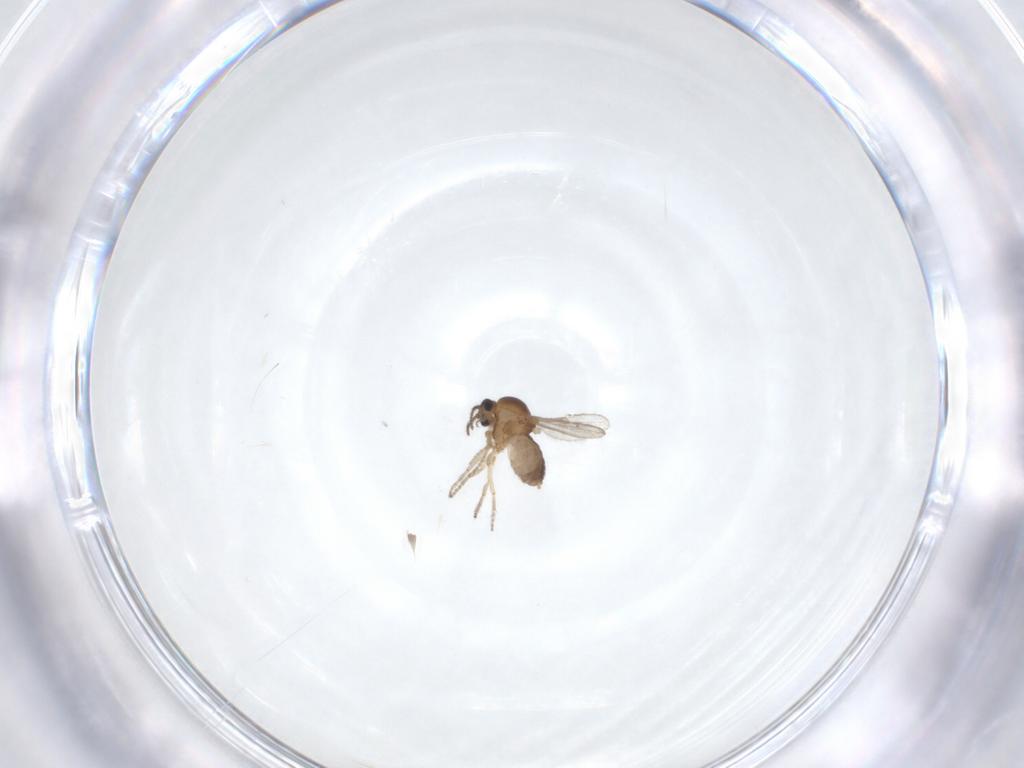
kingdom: Animalia
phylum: Arthropoda
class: Insecta
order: Diptera
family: Ceratopogonidae
